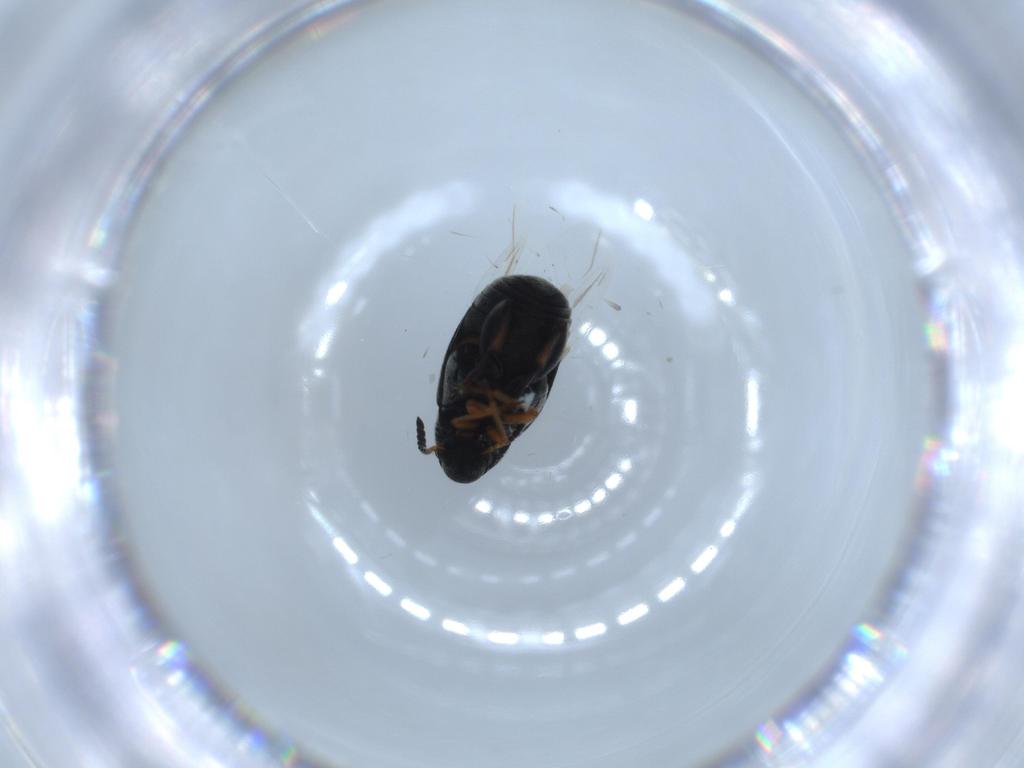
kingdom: Animalia
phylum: Arthropoda
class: Insecta
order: Coleoptera
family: Chrysomelidae
